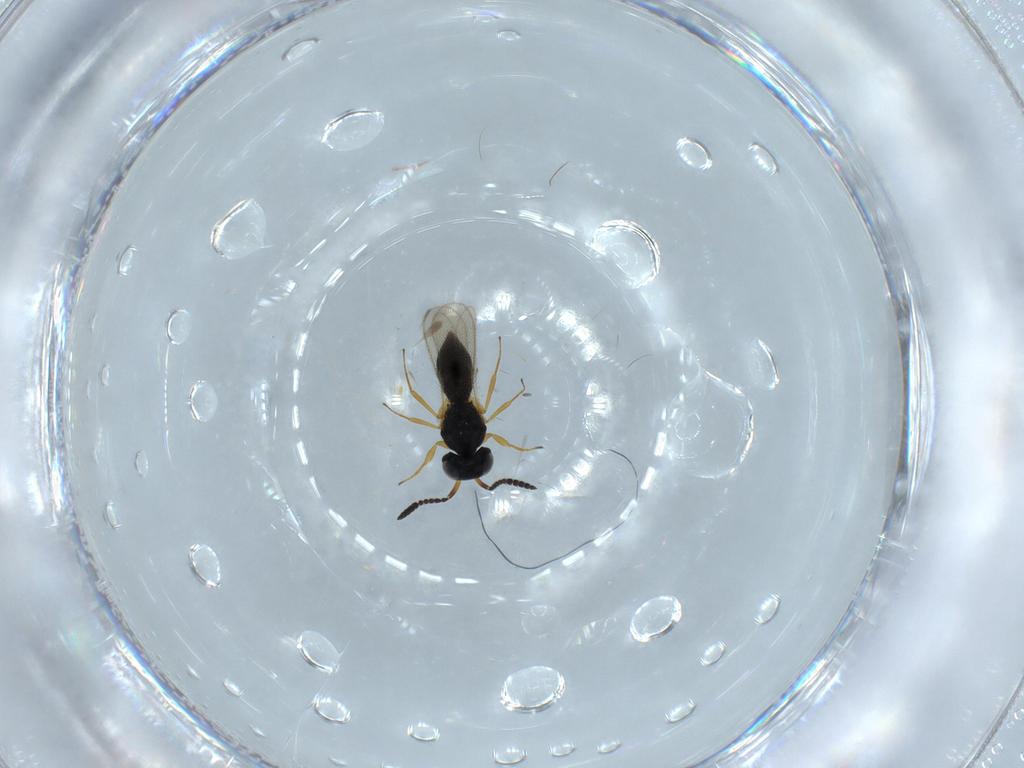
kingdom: Animalia
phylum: Arthropoda
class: Insecta
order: Hymenoptera
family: Scelionidae
